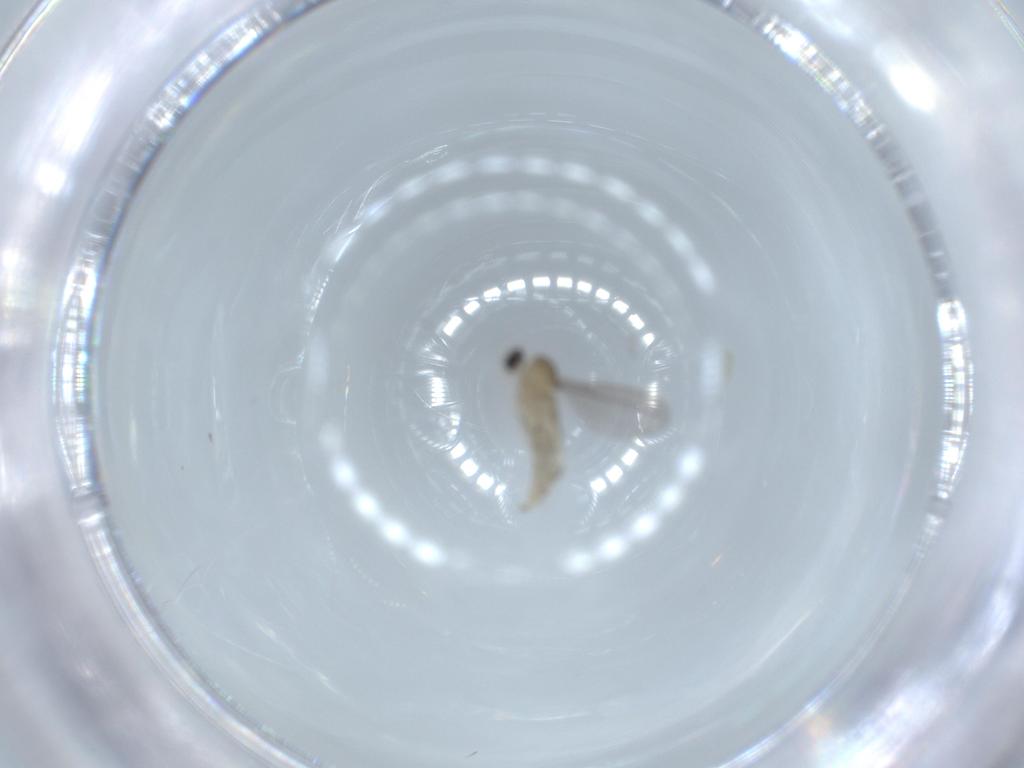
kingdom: Animalia
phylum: Arthropoda
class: Insecta
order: Diptera
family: Cecidomyiidae
